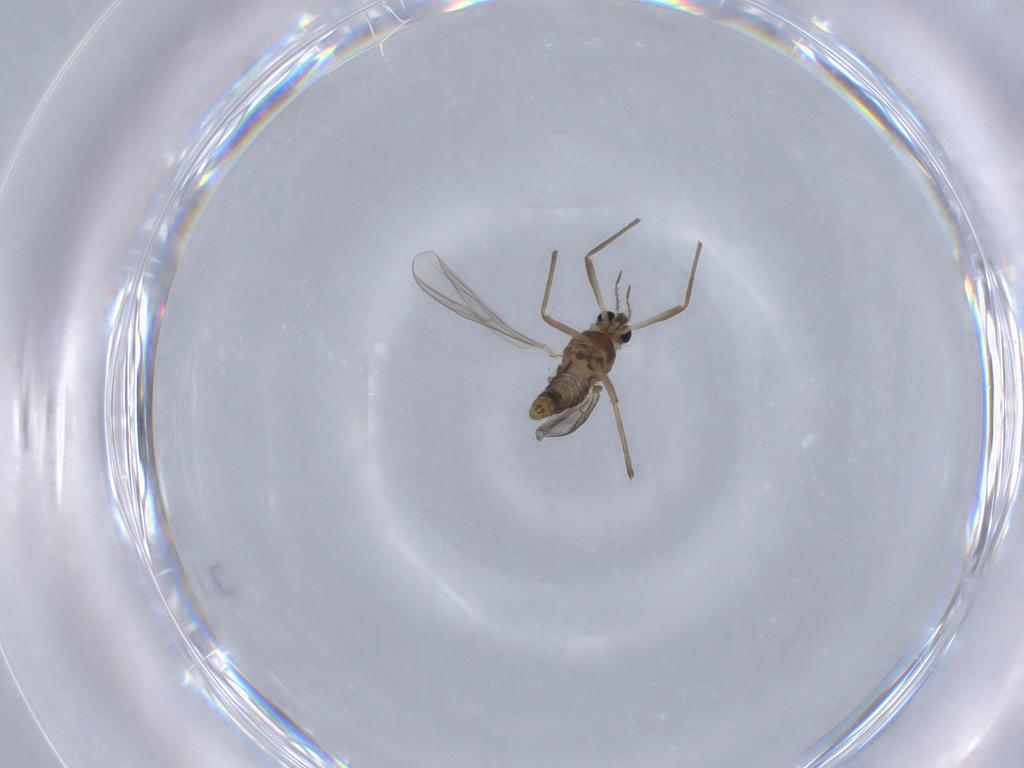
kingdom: Animalia
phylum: Arthropoda
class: Insecta
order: Diptera
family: Chironomidae
